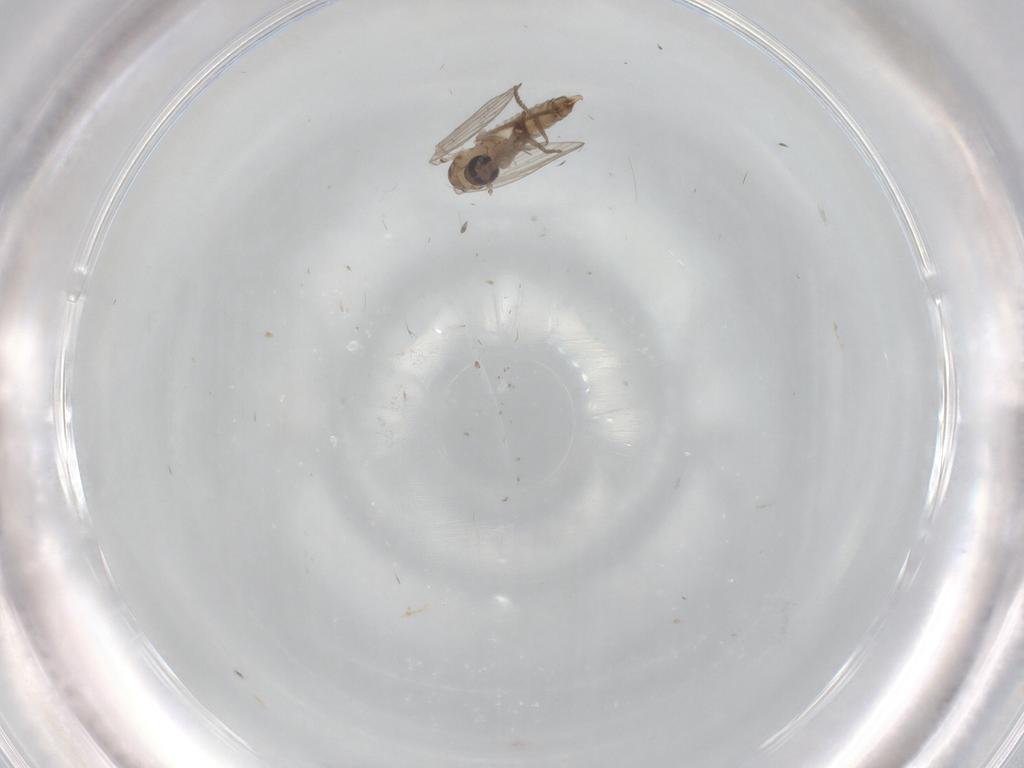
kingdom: Animalia
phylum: Arthropoda
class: Insecta
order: Diptera
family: Psychodidae
